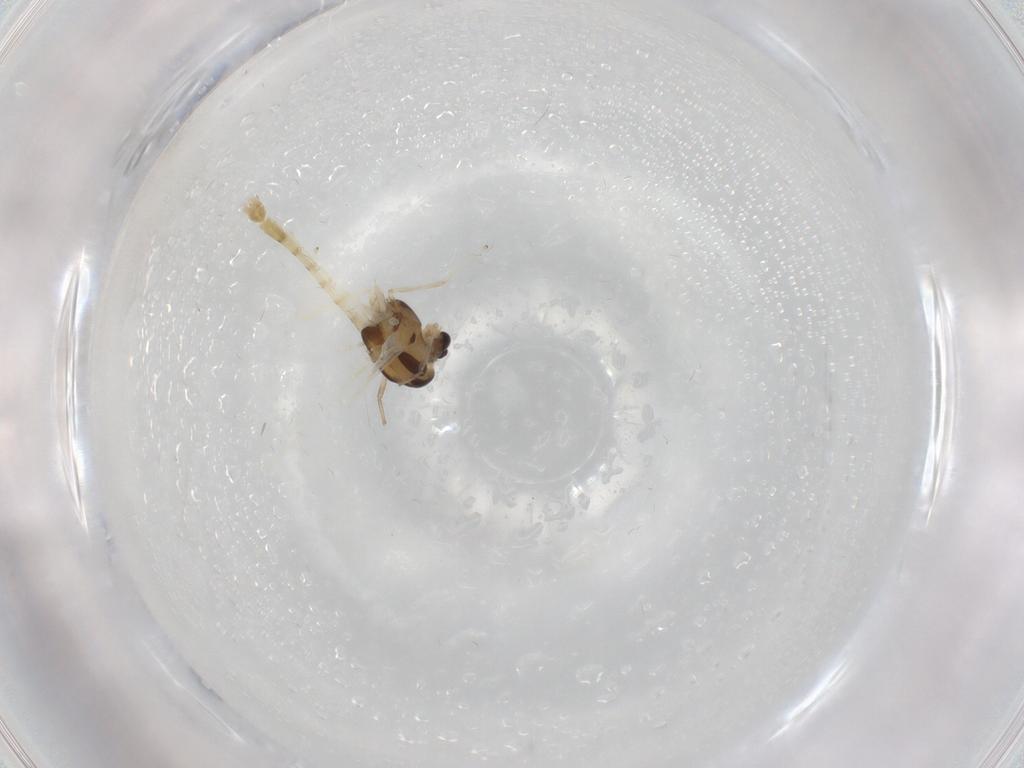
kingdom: Animalia
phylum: Arthropoda
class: Insecta
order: Diptera
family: Chironomidae
